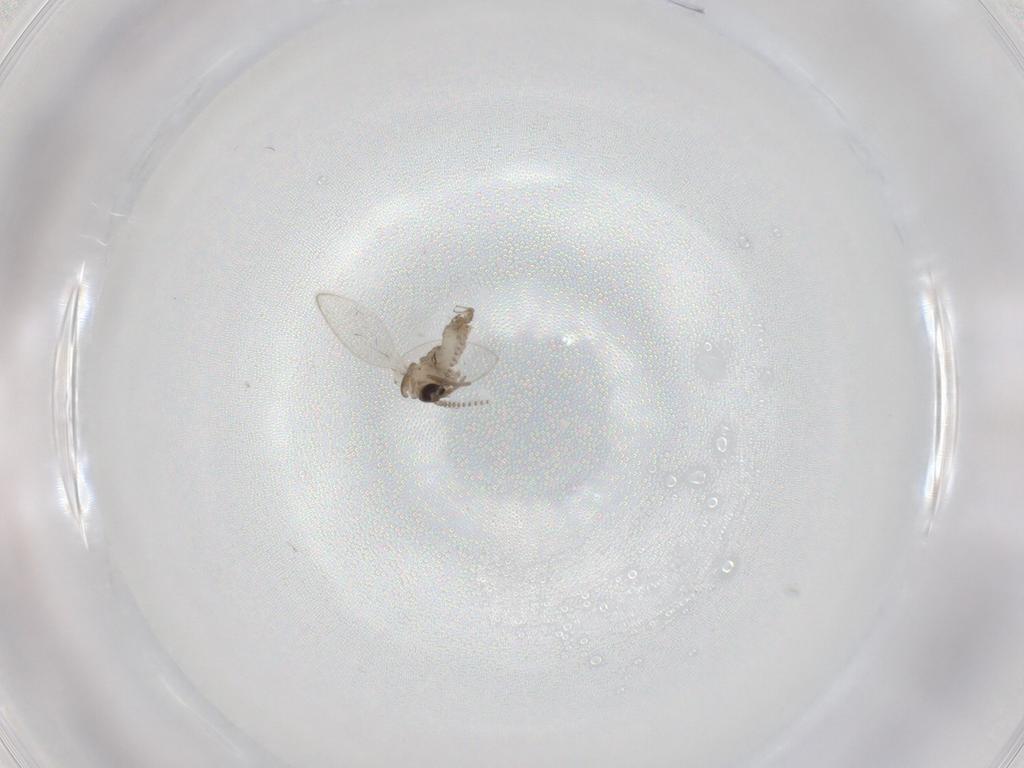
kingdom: Animalia
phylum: Arthropoda
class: Insecta
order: Diptera
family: Psychodidae
